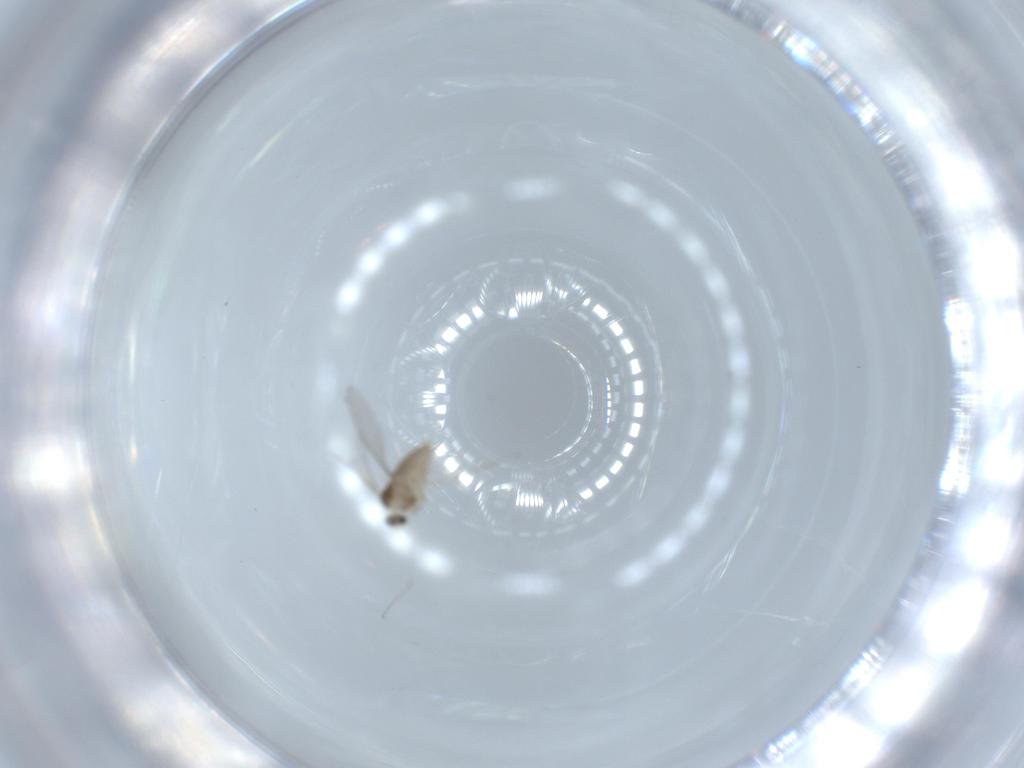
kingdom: Animalia
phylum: Arthropoda
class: Insecta
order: Diptera
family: Cecidomyiidae
